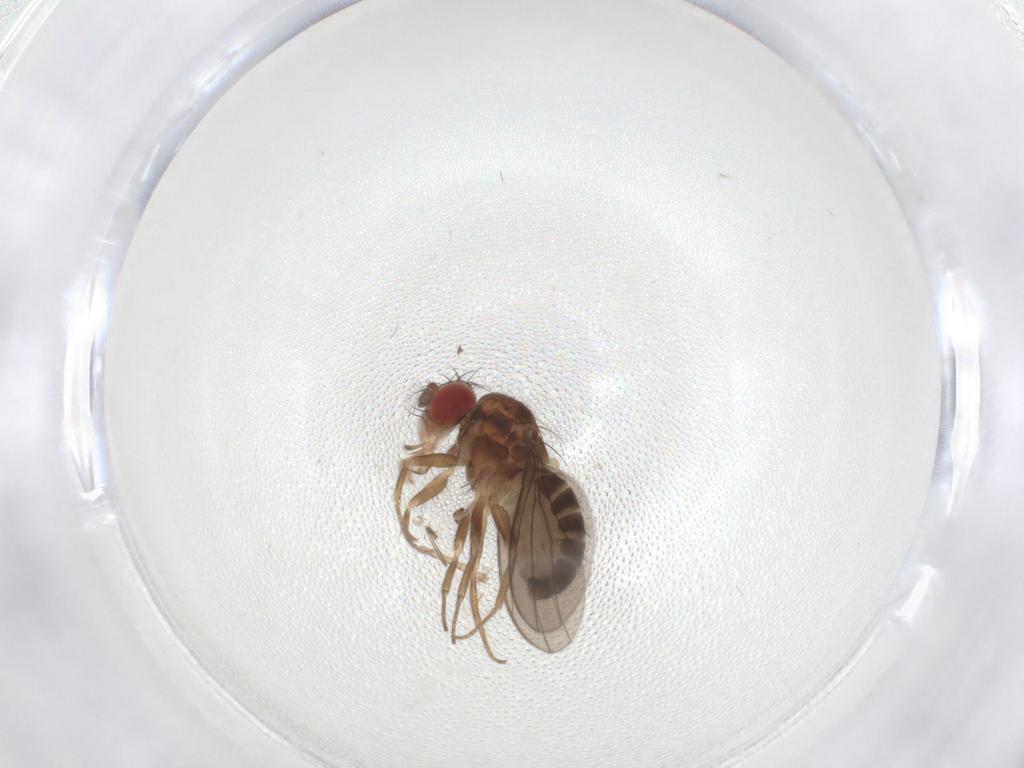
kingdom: Animalia
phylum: Arthropoda
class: Insecta
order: Diptera
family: Drosophilidae
